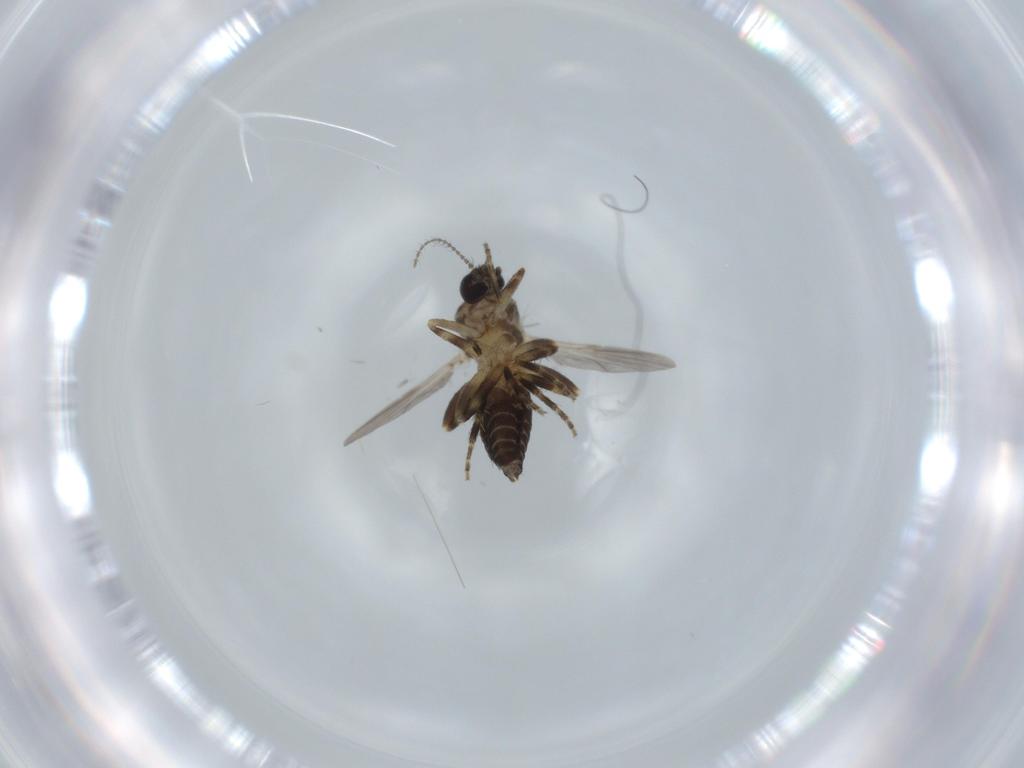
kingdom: Animalia
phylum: Arthropoda
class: Insecta
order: Diptera
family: Ceratopogonidae
